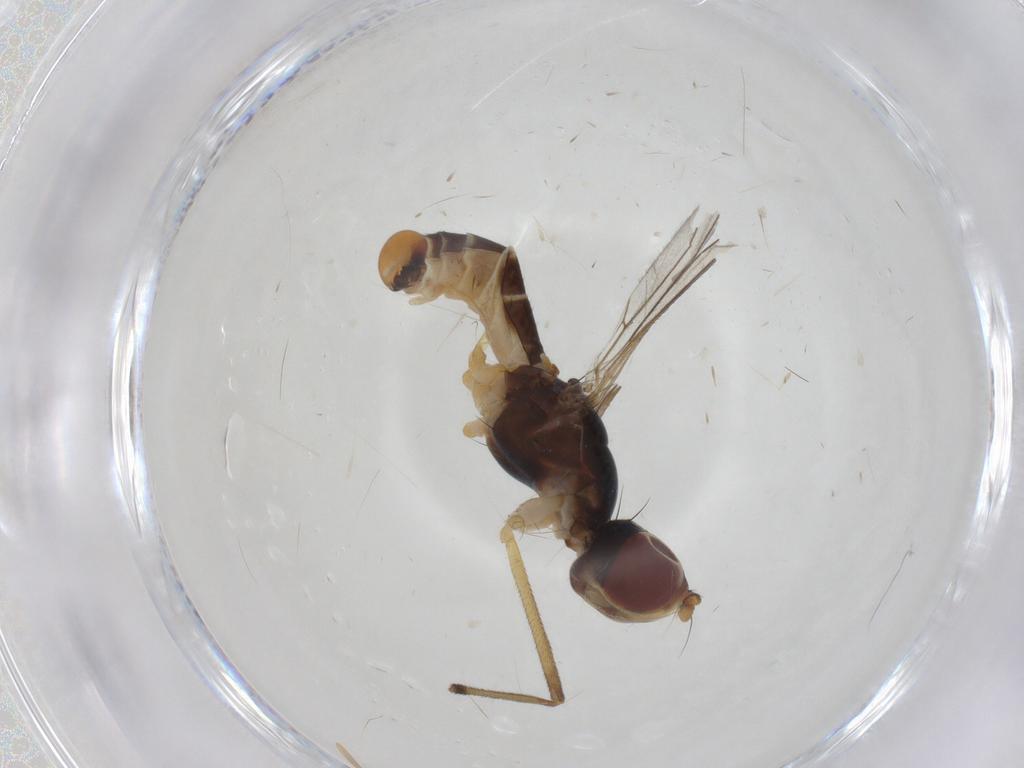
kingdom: Animalia
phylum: Arthropoda
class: Insecta
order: Diptera
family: Micropezidae
